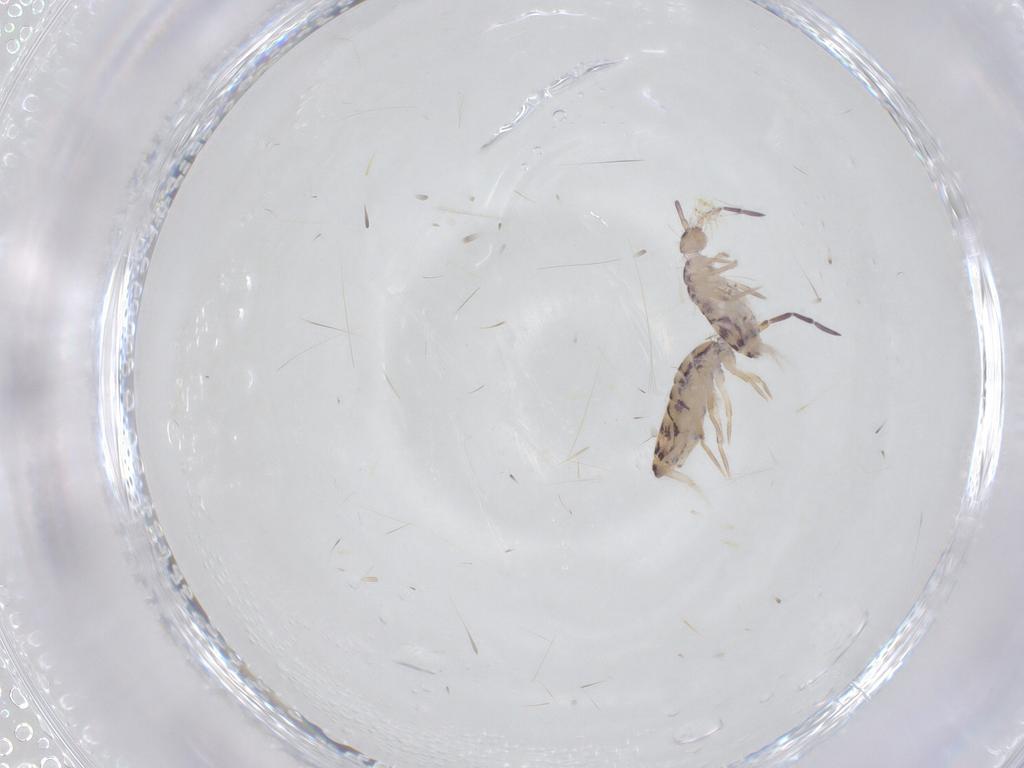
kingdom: Animalia
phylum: Arthropoda
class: Collembola
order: Entomobryomorpha
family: Entomobryidae
